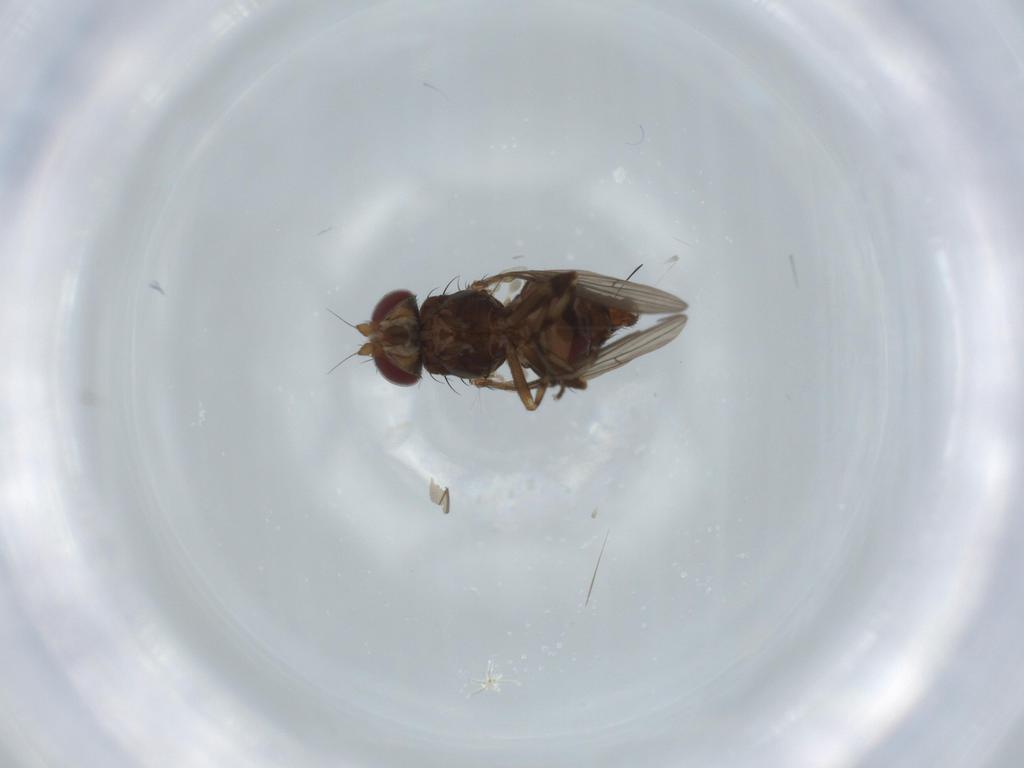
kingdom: Animalia
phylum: Arthropoda
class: Insecta
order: Diptera
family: Heleomyzidae
